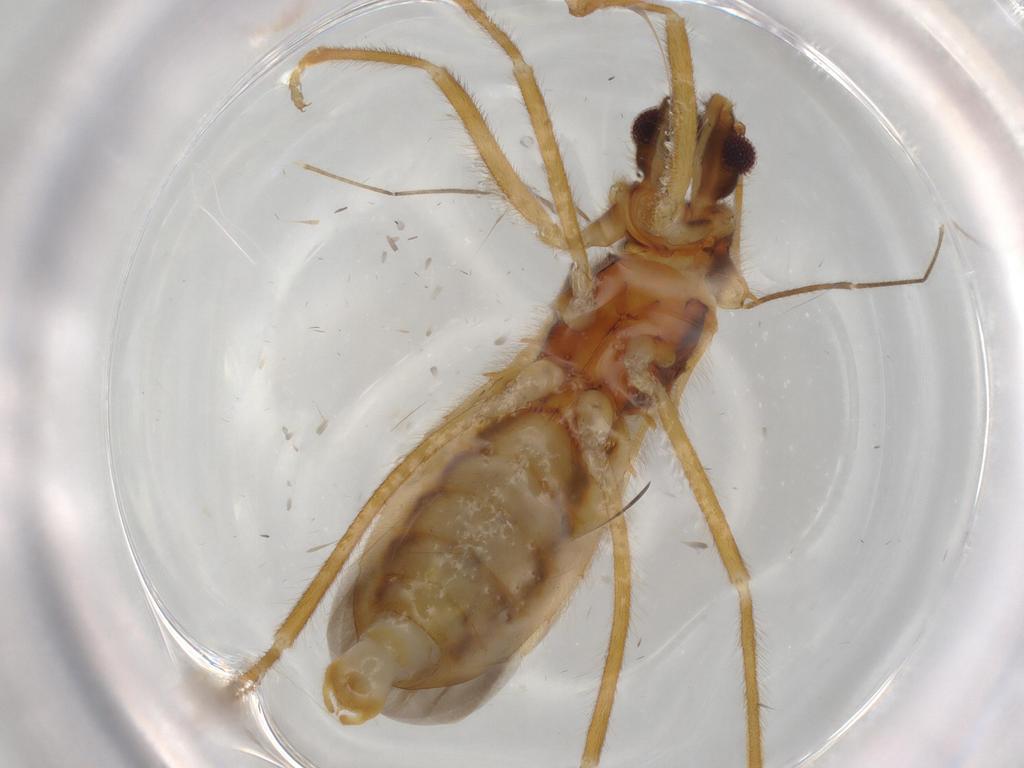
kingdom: Animalia
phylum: Arthropoda
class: Insecta
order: Hemiptera
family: Reduviidae
